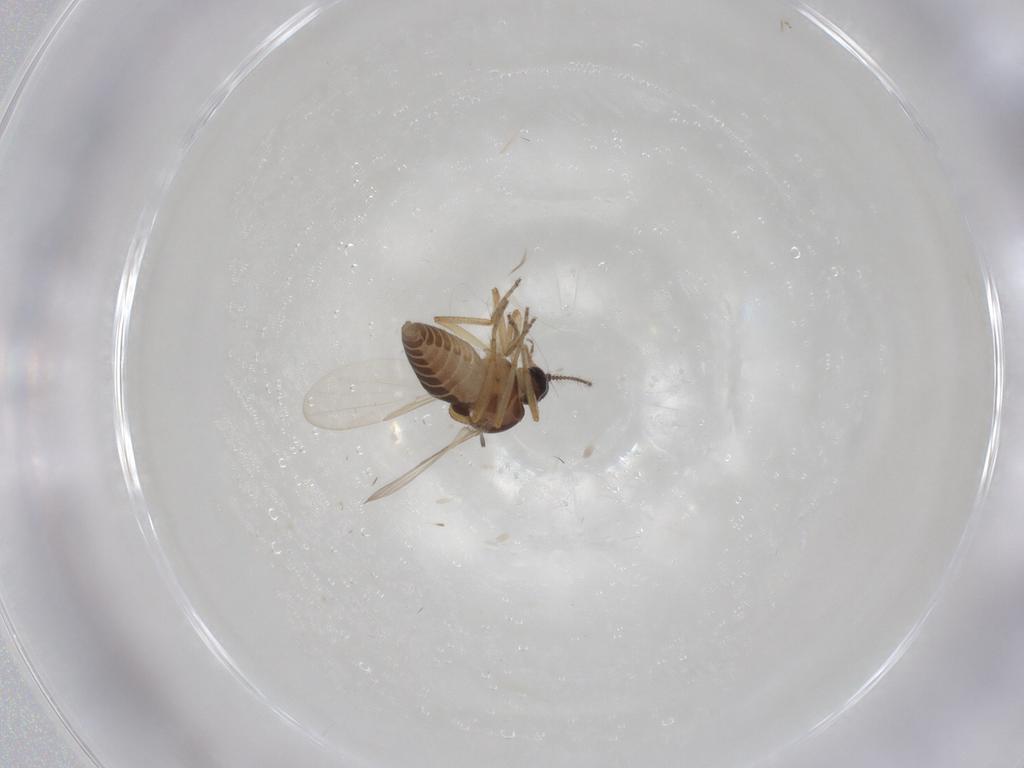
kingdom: Animalia
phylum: Arthropoda
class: Insecta
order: Diptera
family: Ceratopogonidae
